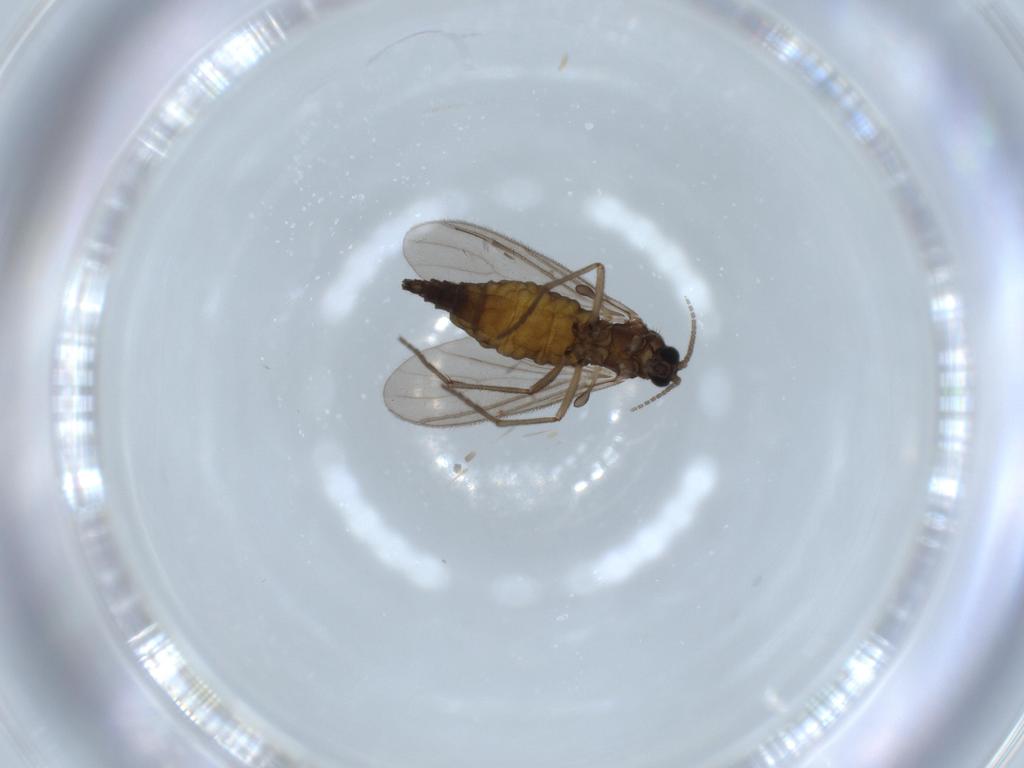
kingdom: Animalia
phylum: Arthropoda
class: Insecta
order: Diptera
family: Sciaridae
